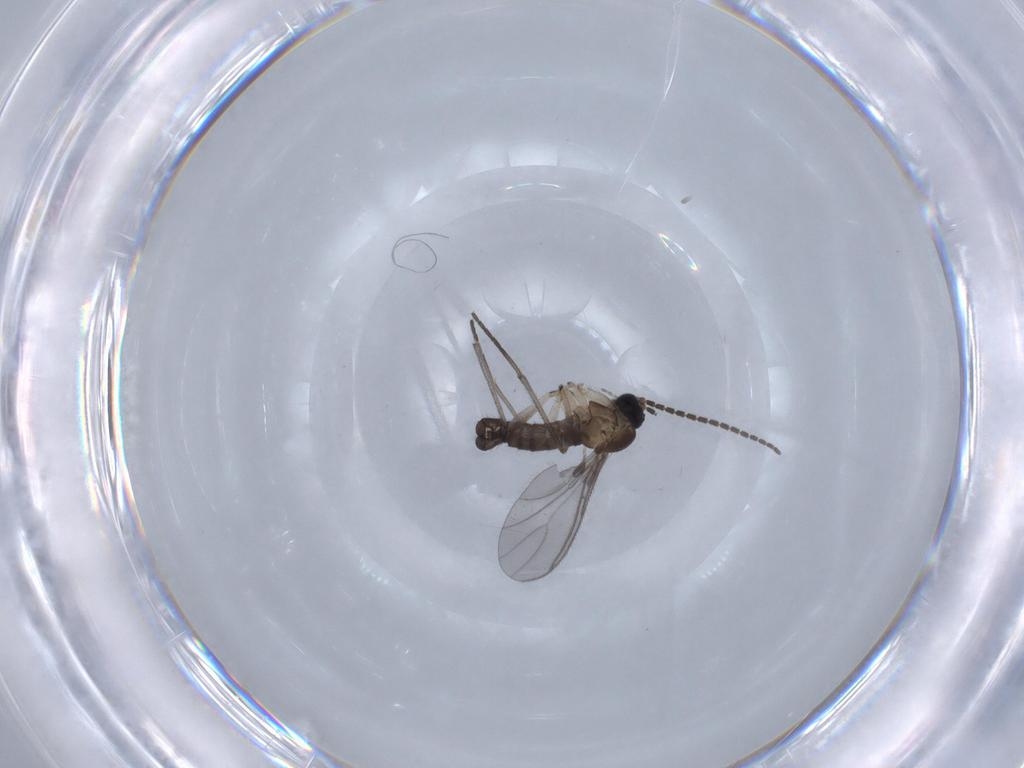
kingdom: Animalia
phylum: Arthropoda
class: Insecta
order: Diptera
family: Sciaridae
